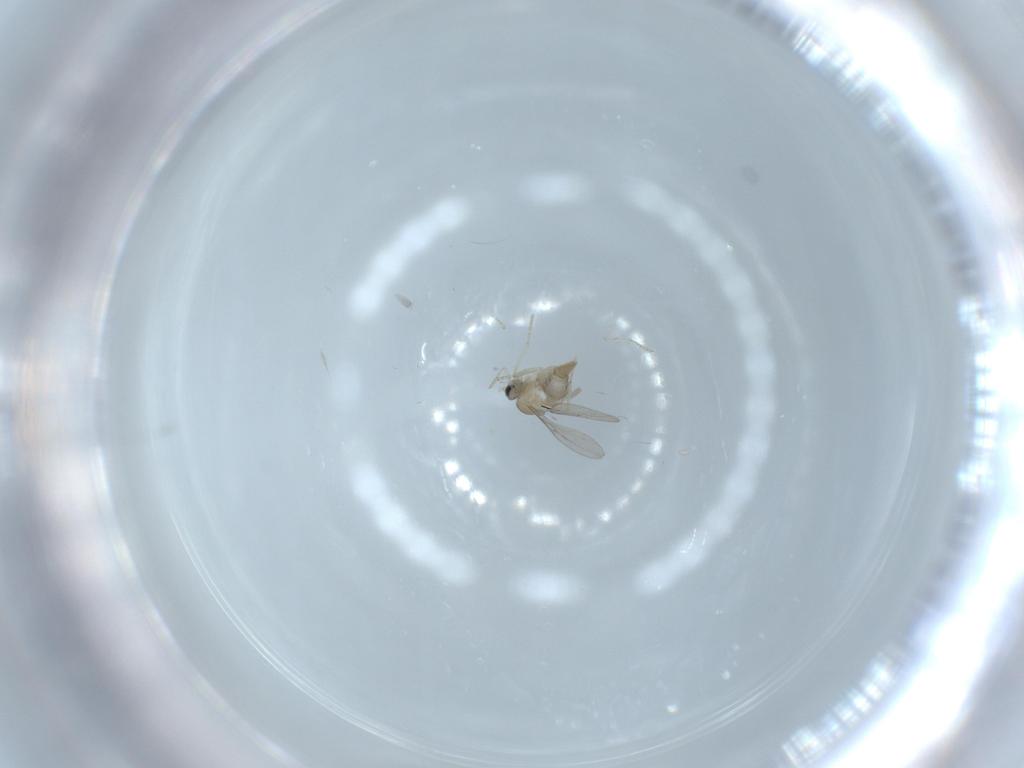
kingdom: Animalia
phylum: Arthropoda
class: Insecta
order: Diptera
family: Cecidomyiidae
